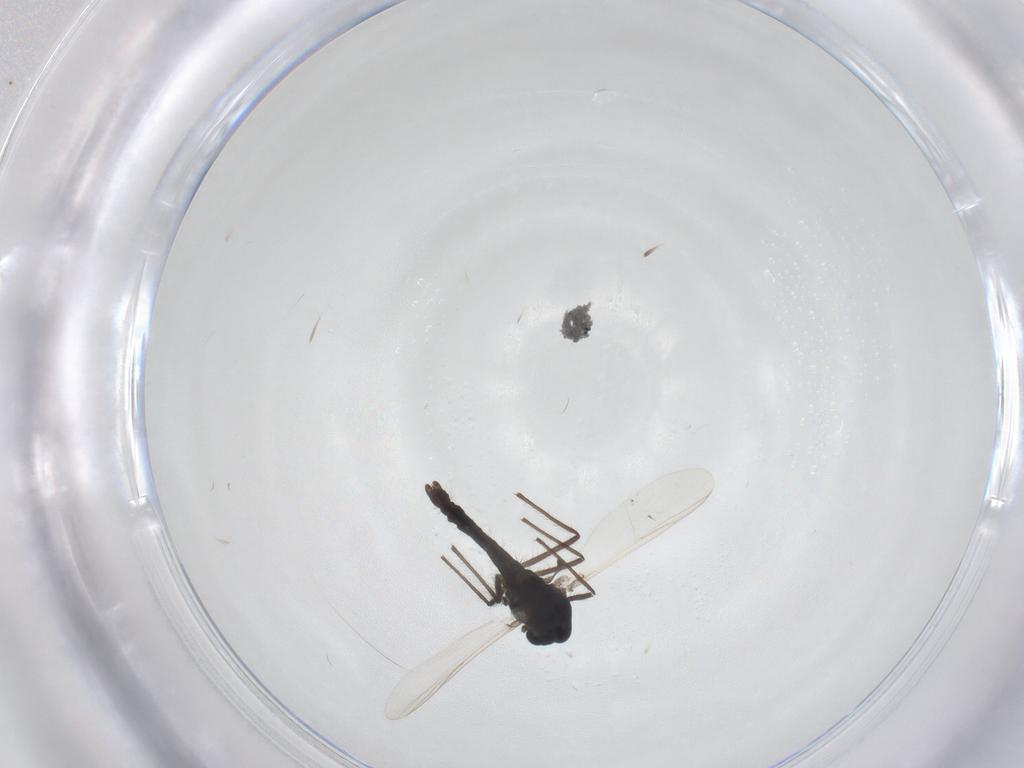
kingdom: Animalia
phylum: Arthropoda
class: Insecta
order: Diptera
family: Chironomidae
